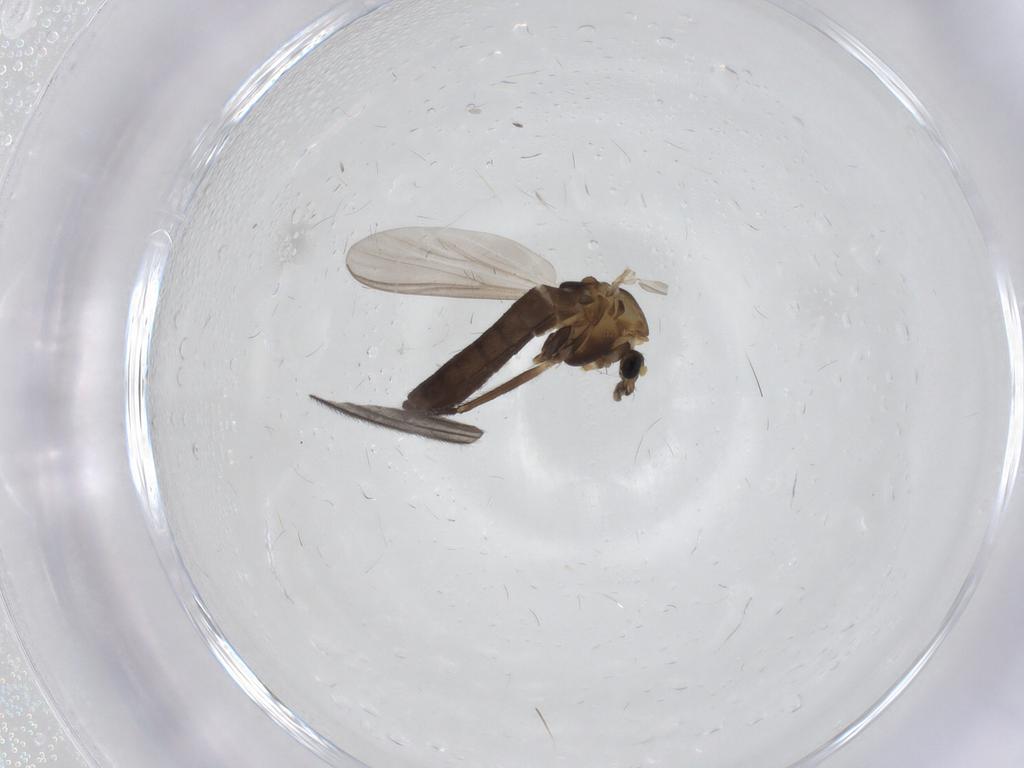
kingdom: Animalia
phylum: Arthropoda
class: Insecta
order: Diptera
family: Chironomidae
